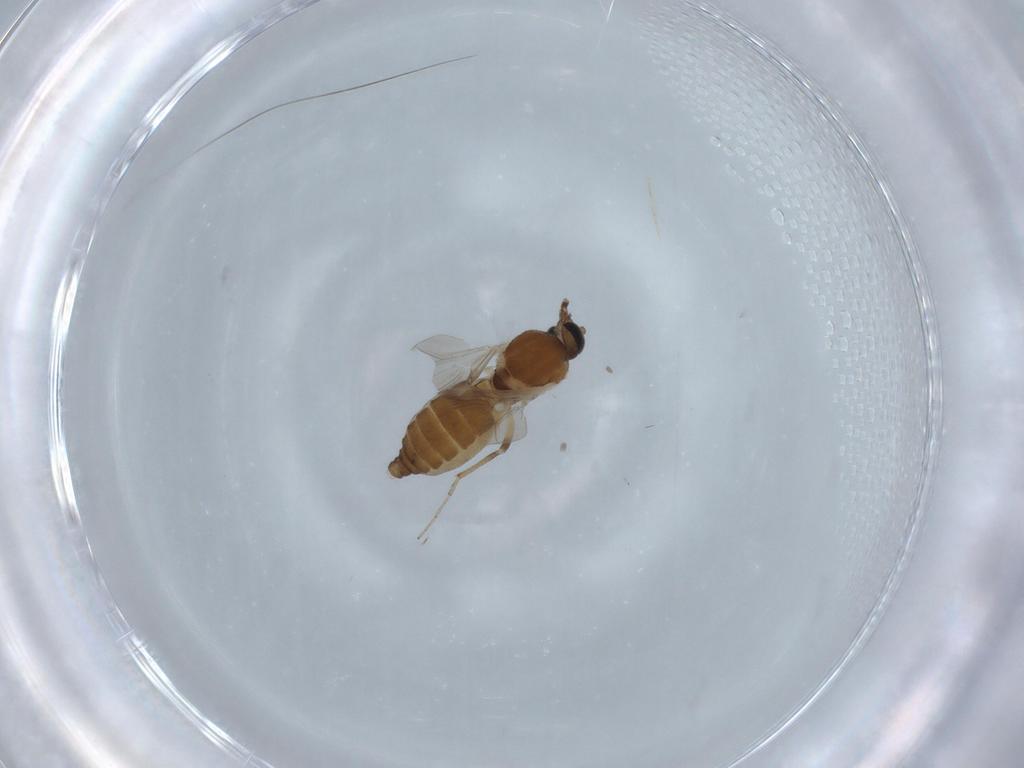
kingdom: Animalia
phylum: Arthropoda
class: Insecta
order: Diptera
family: Ceratopogonidae
